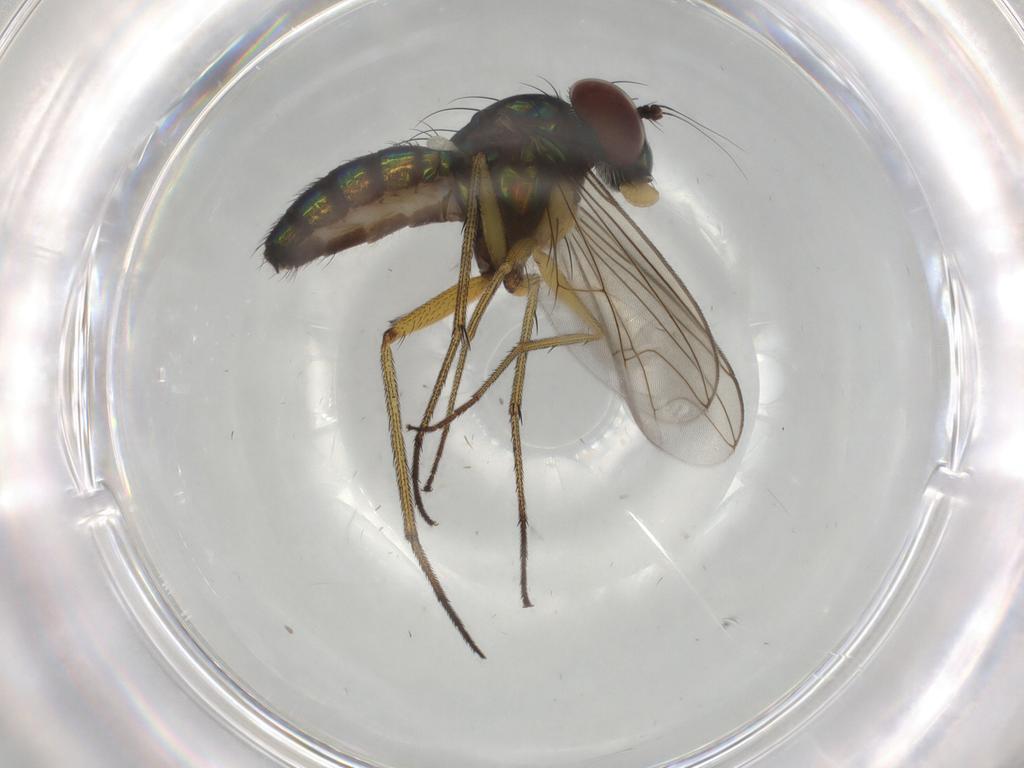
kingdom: Animalia
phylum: Arthropoda
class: Insecta
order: Diptera
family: Dolichopodidae
